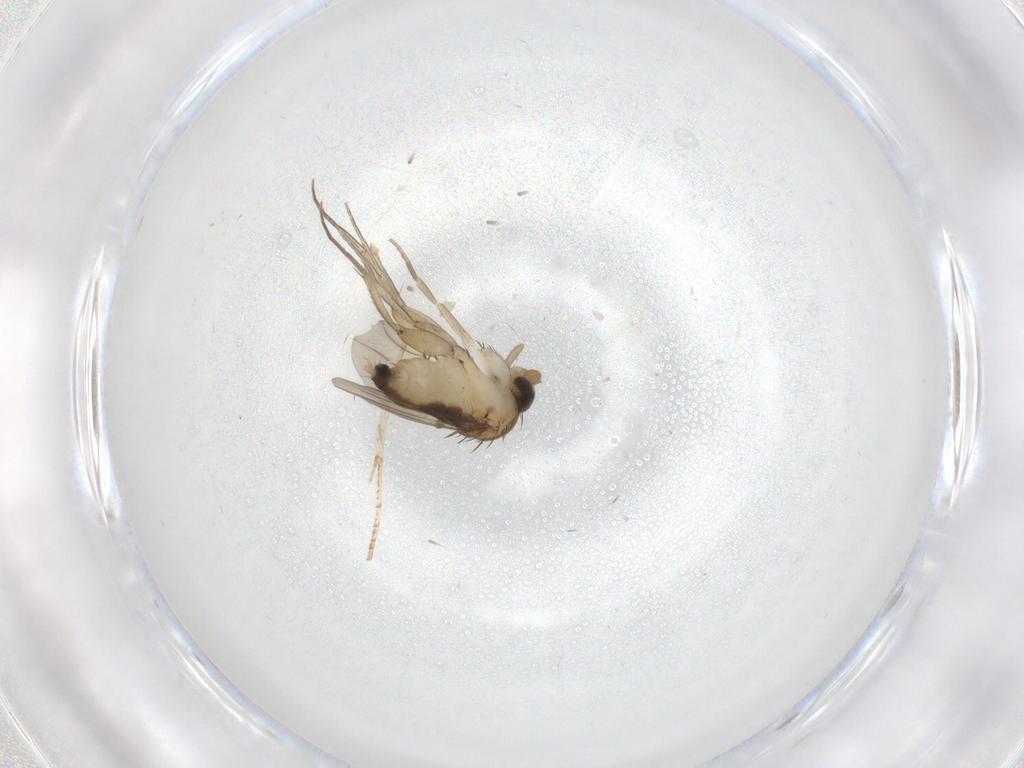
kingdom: Animalia
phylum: Arthropoda
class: Insecta
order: Diptera
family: Phoridae
